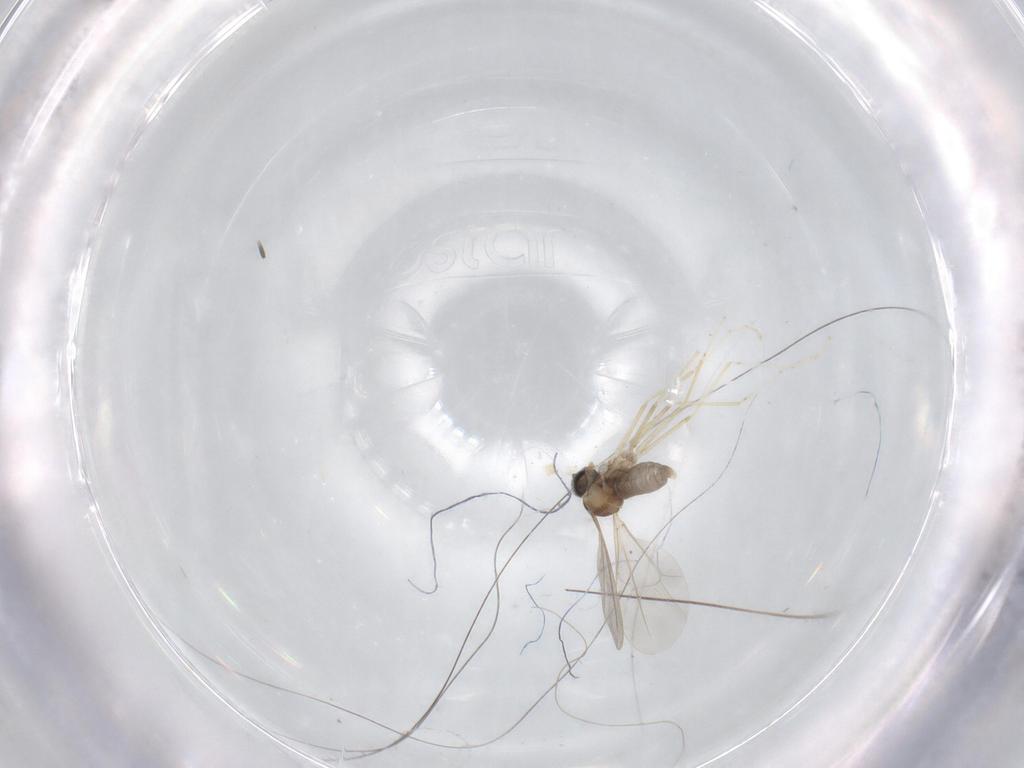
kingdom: Animalia
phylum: Arthropoda
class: Insecta
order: Diptera
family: Cecidomyiidae
